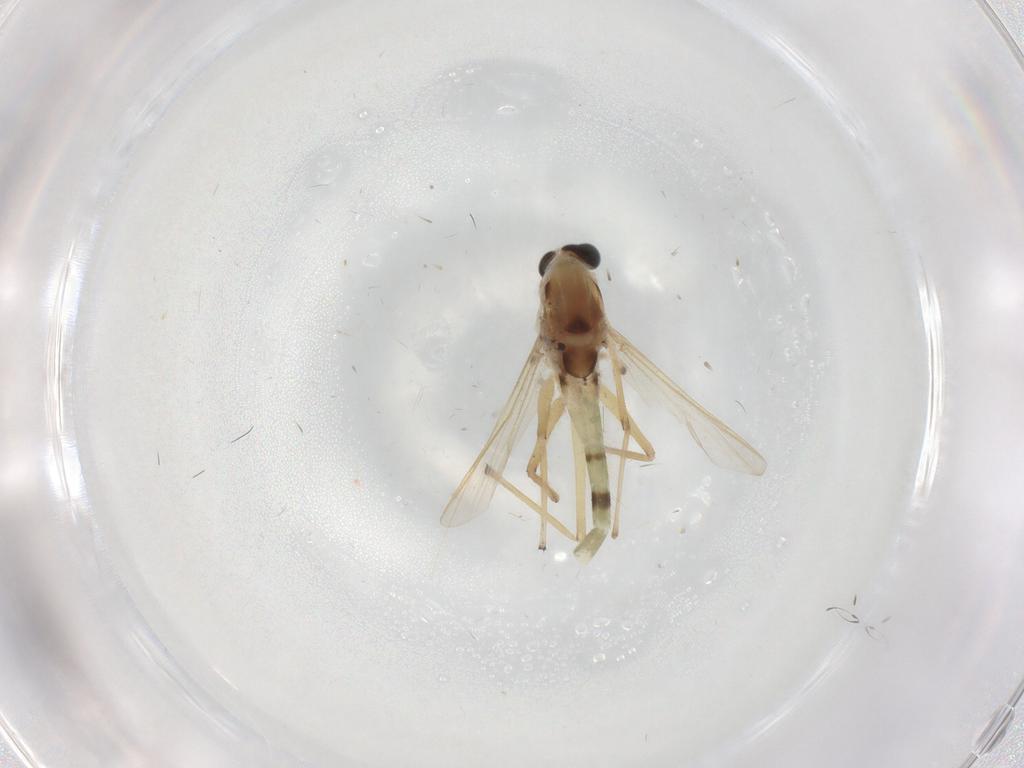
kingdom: Animalia
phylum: Arthropoda
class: Insecta
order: Diptera
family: Chironomidae
